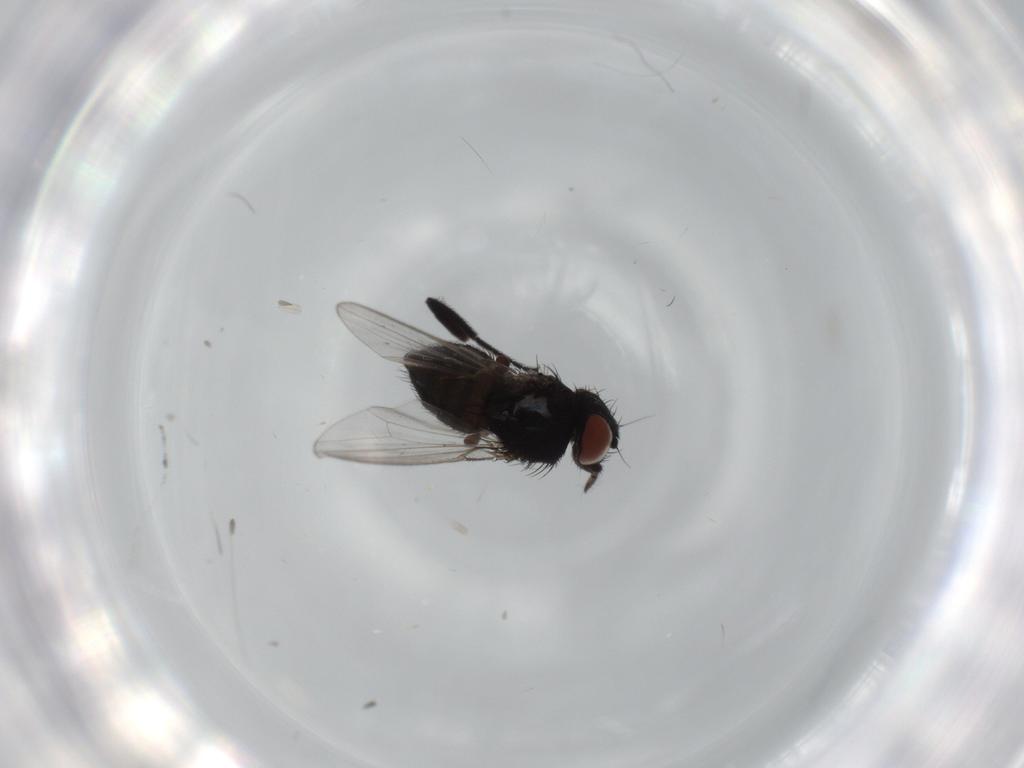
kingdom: Animalia
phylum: Arthropoda
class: Insecta
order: Diptera
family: Milichiidae
